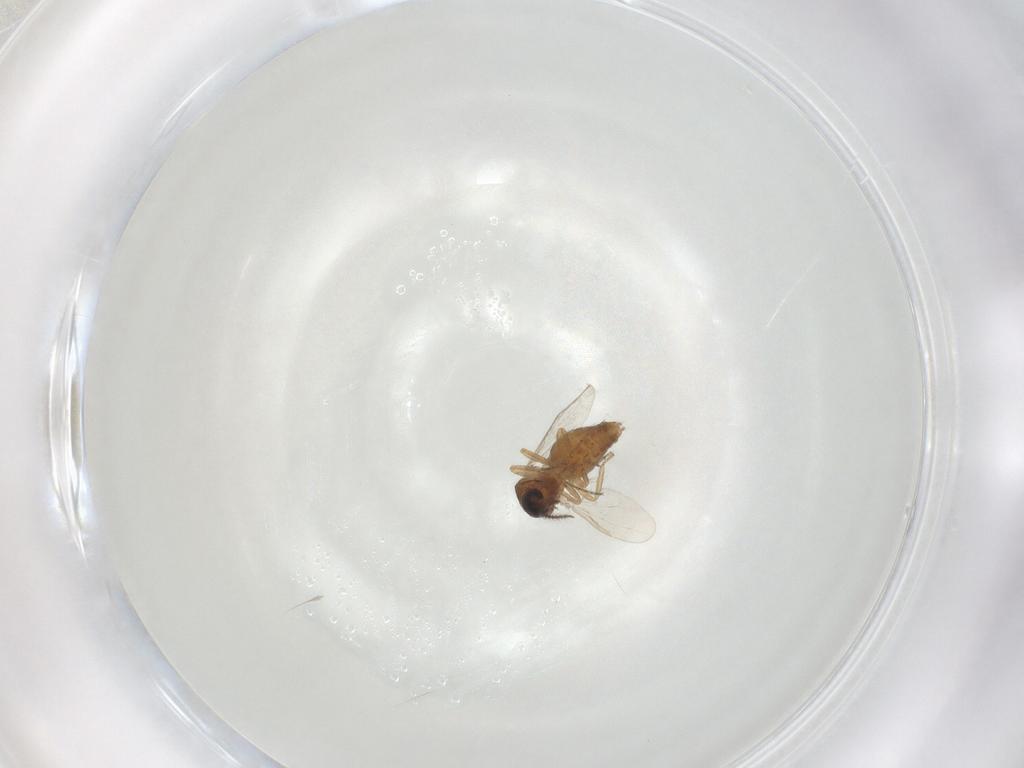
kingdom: Animalia
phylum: Arthropoda
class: Insecta
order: Diptera
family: Ceratopogonidae
